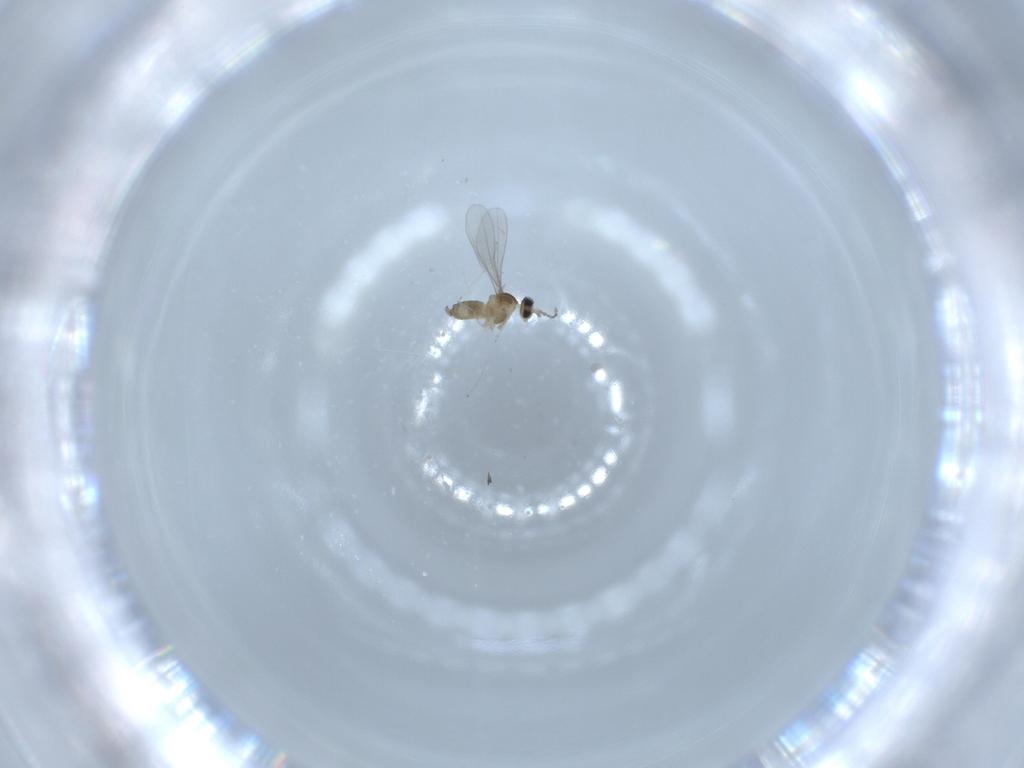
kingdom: Animalia
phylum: Arthropoda
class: Insecta
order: Diptera
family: Cecidomyiidae
